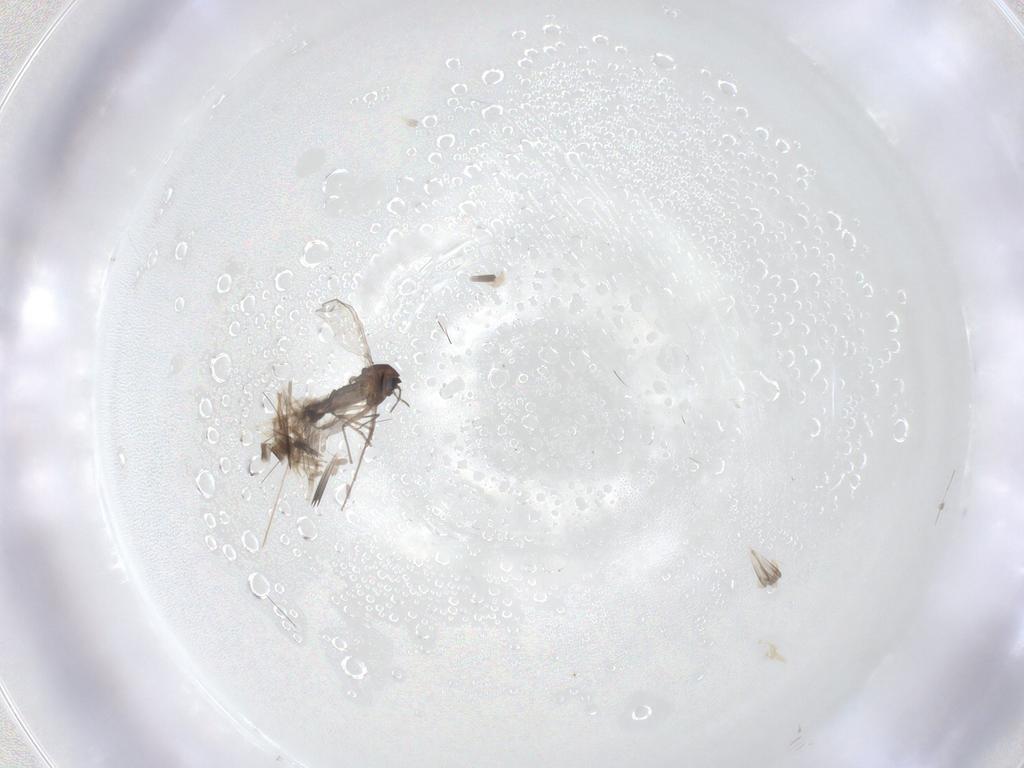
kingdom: Animalia
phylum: Arthropoda
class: Insecta
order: Diptera
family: Chironomidae
